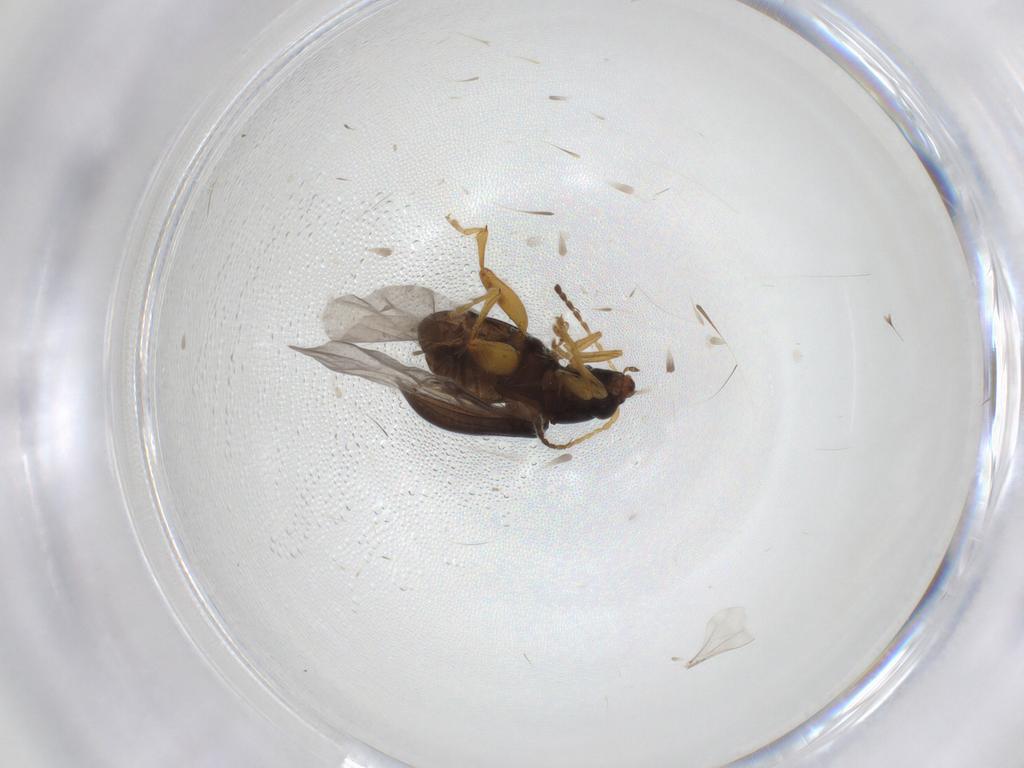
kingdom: Animalia
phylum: Arthropoda
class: Insecta
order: Coleoptera
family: Chrysomelidae
